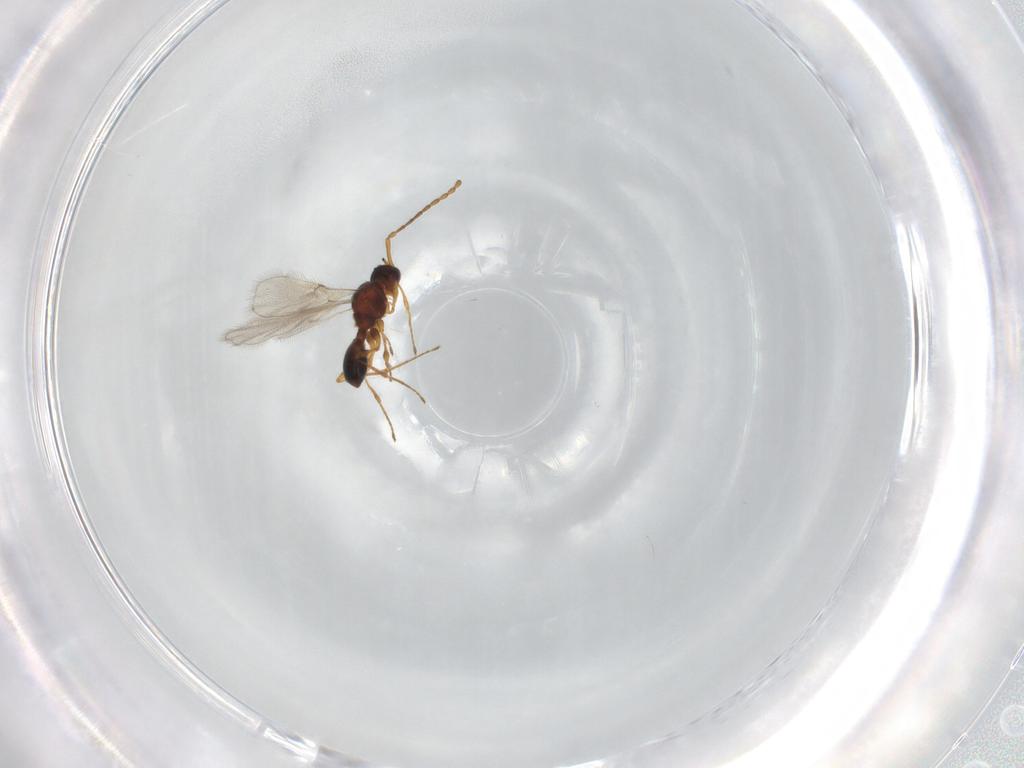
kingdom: Animalia
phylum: Arthropoda
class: Insecta
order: Hymenoptera
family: Diapriidae
